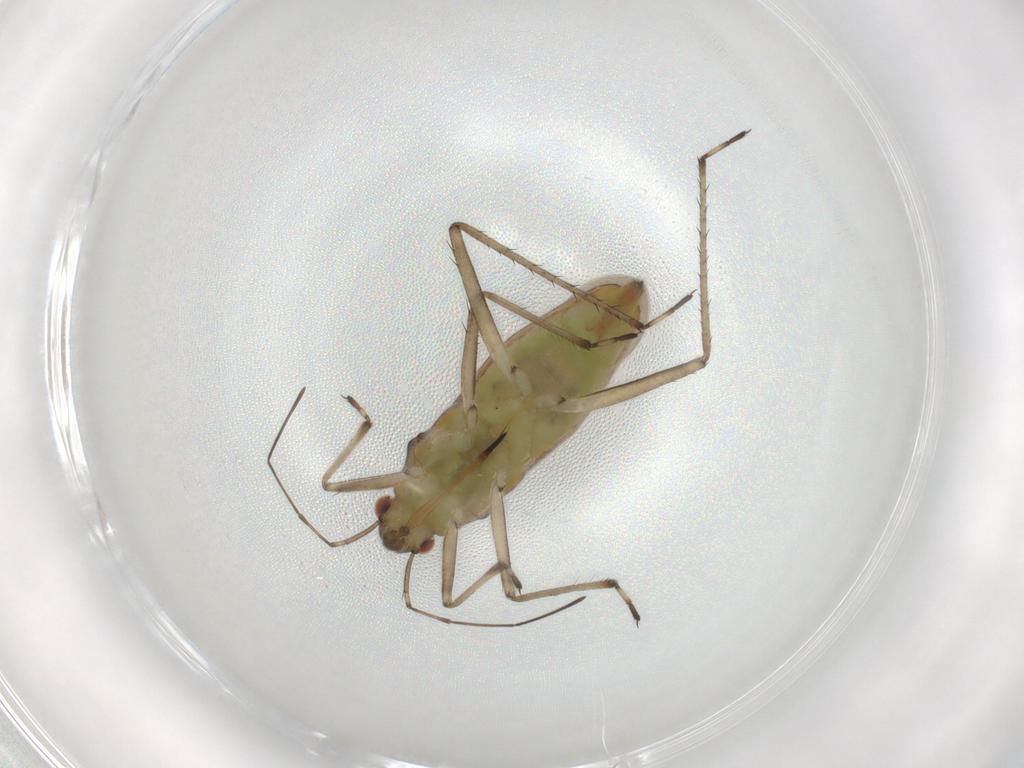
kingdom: Animalia
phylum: Arthropoda
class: Insecta
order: Hemiptera
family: Mesoveliidae
